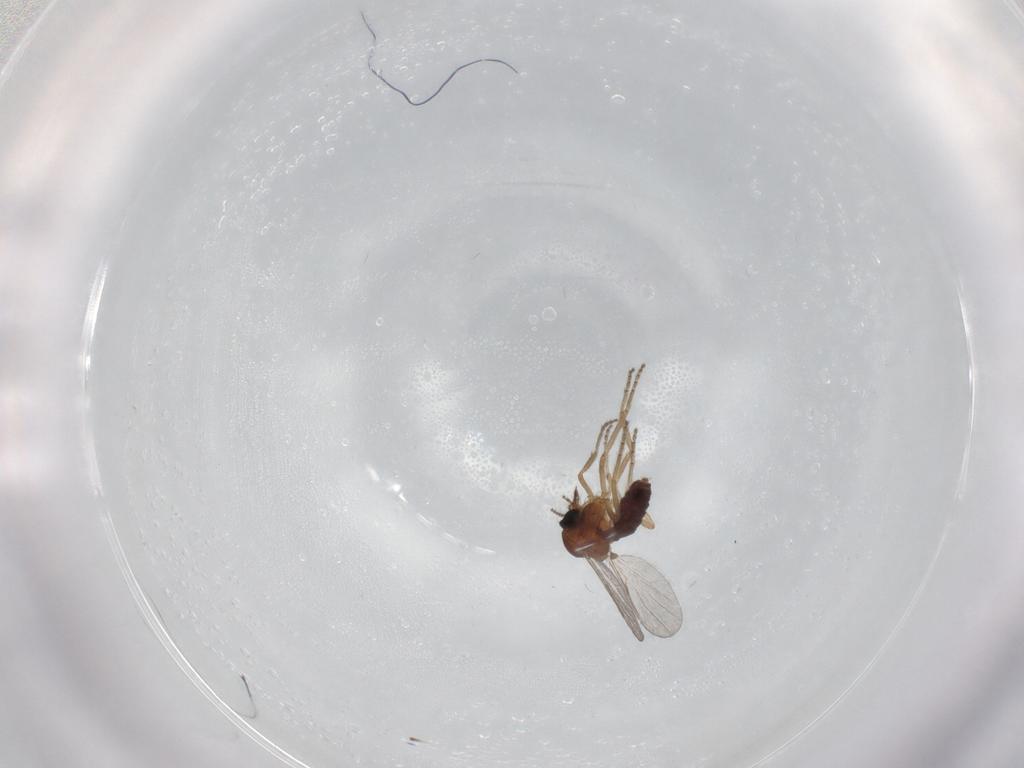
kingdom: Animalia
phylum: Arthropoda
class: Insecta
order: Diptera
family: Ceratopogonidae
